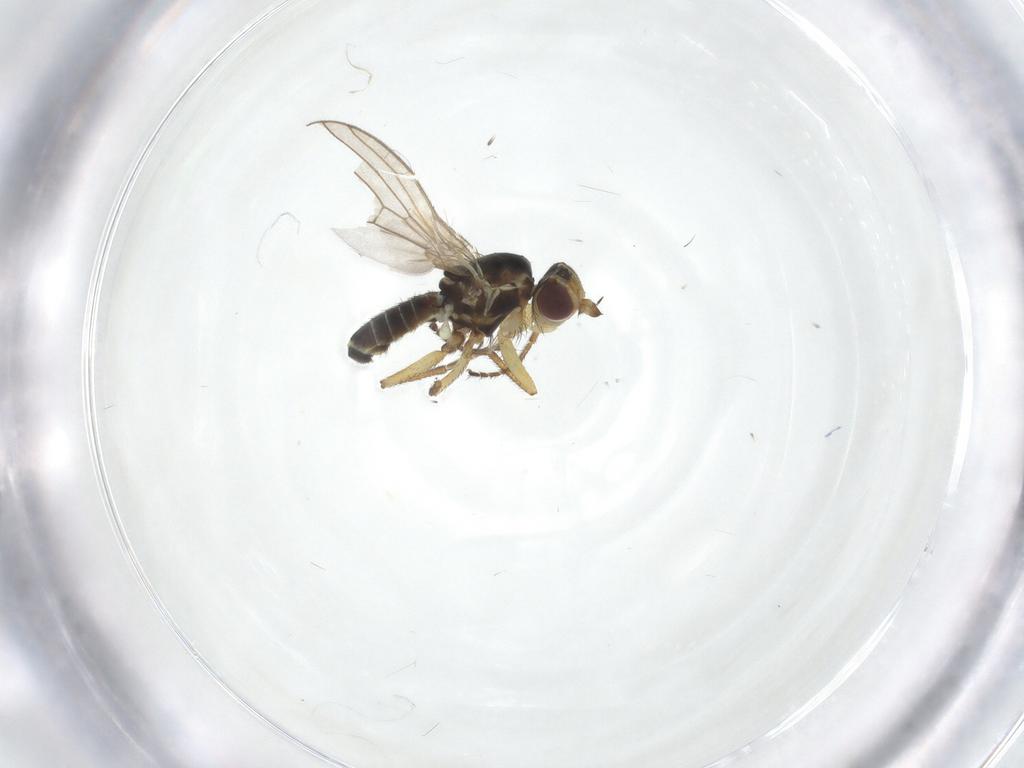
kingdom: Animalia
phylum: Arthropoda
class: Insecta
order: Diptera
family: Agromyzidae
